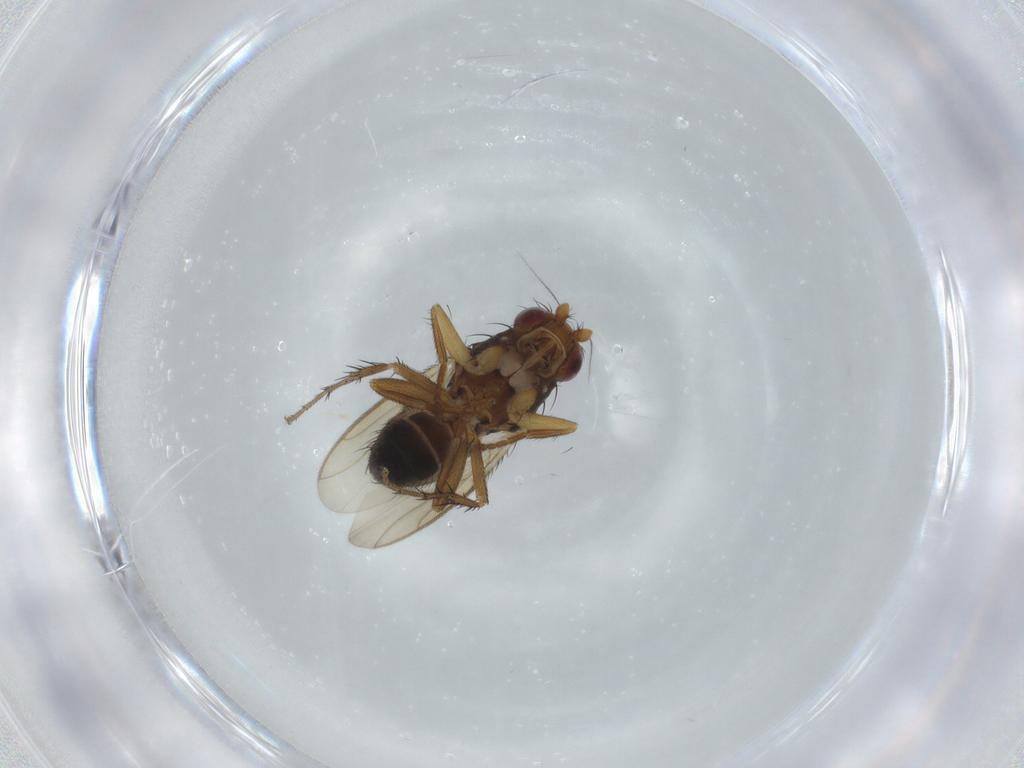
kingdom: Animalia
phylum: Arthropoda
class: Insecta
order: Diptera
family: Sphaeroceridae
